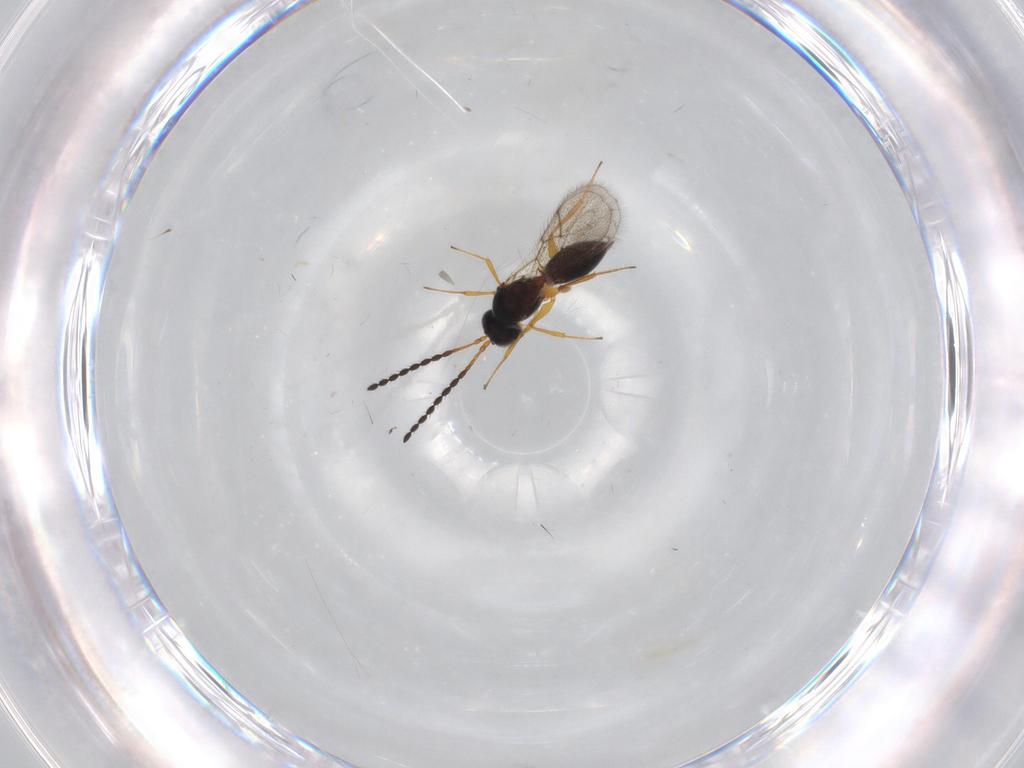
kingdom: Animalia
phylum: Arthropoda
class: Insecta
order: Hymenoptera
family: Figitidae
